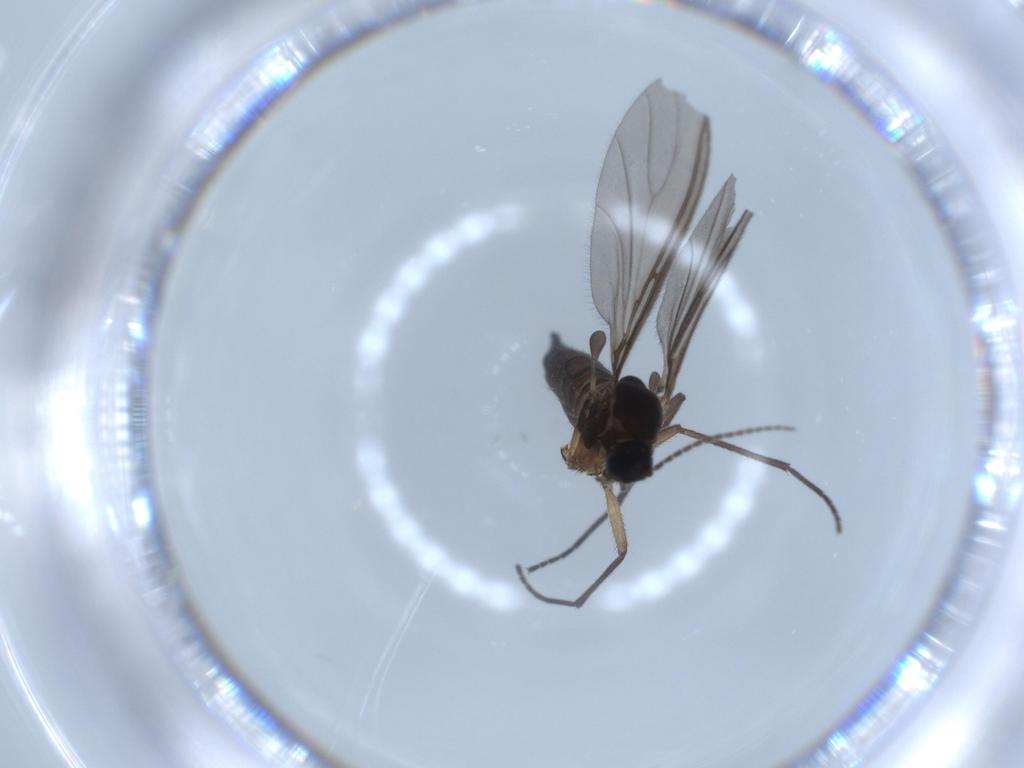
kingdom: Animalia
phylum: Arthropoda
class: Insecta
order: Diptera
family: Sciaridae
